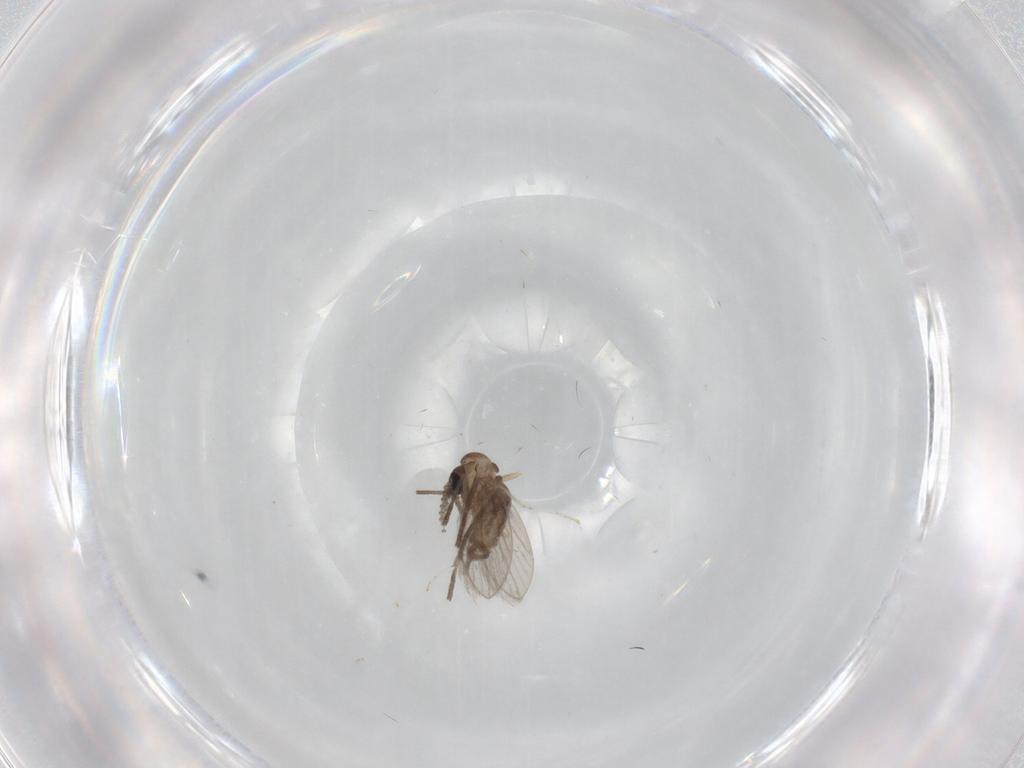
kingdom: Animalia
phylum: Arthropoda
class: Insecta
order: Diptera
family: Psychodidae
